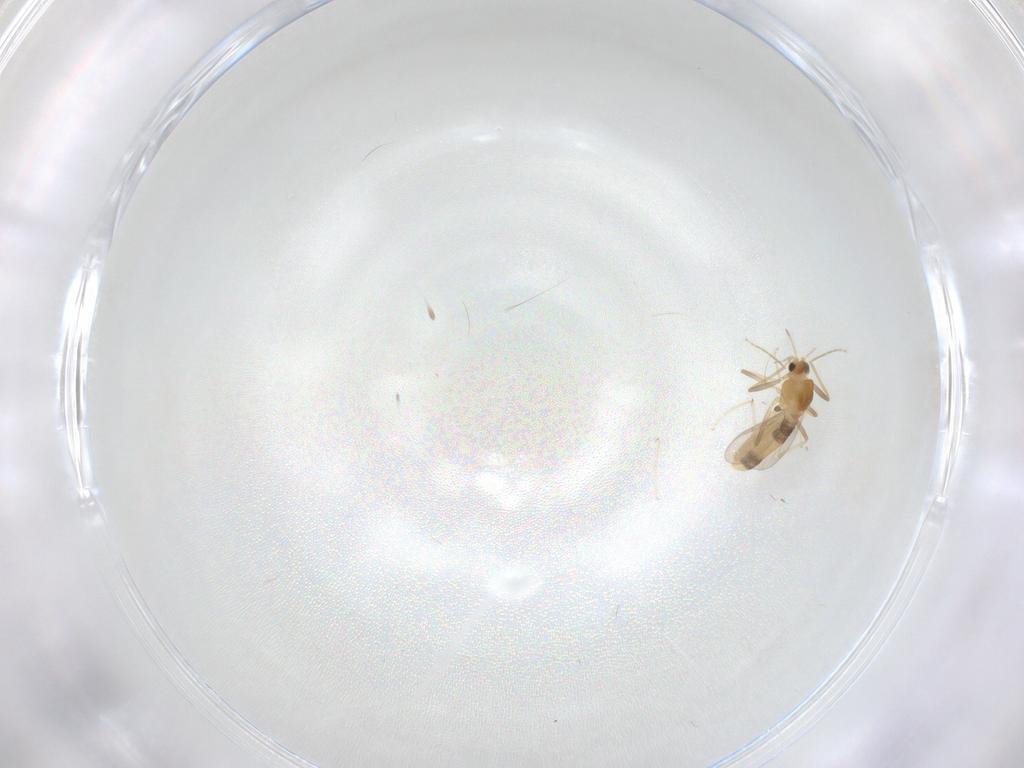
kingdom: Animalia
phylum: Arthropoda
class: Insecta
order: Diptera
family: Chironomidae
